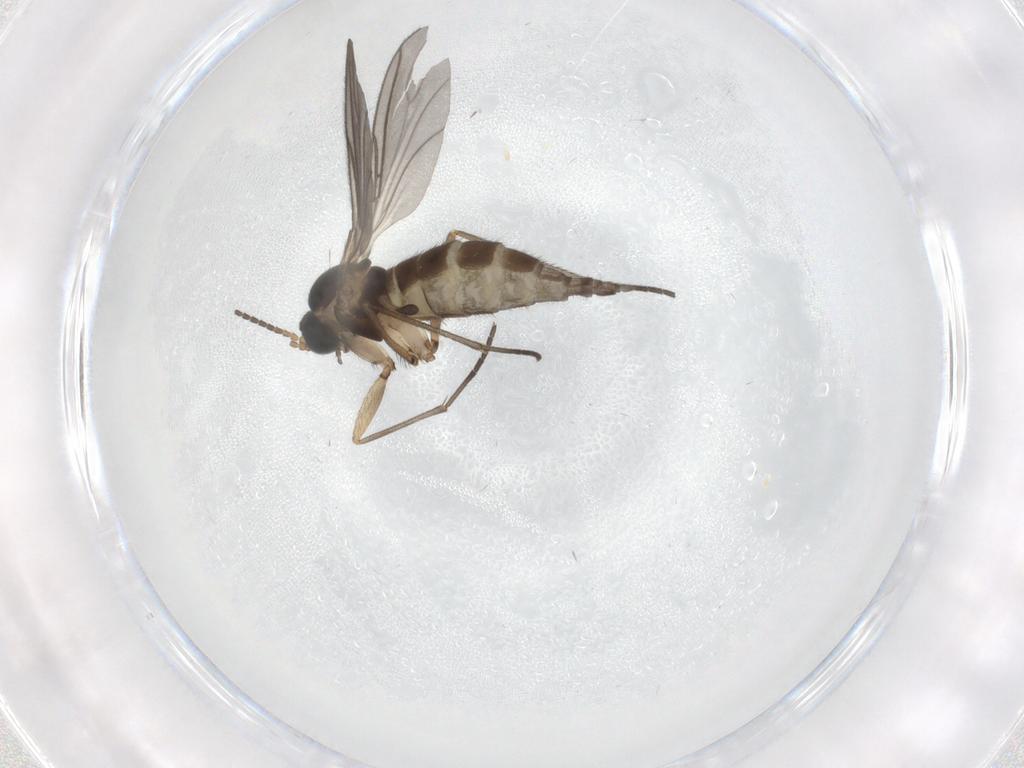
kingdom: Animalia
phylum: Arthropoda
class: Insecta
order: Diptera
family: Sciaridae
